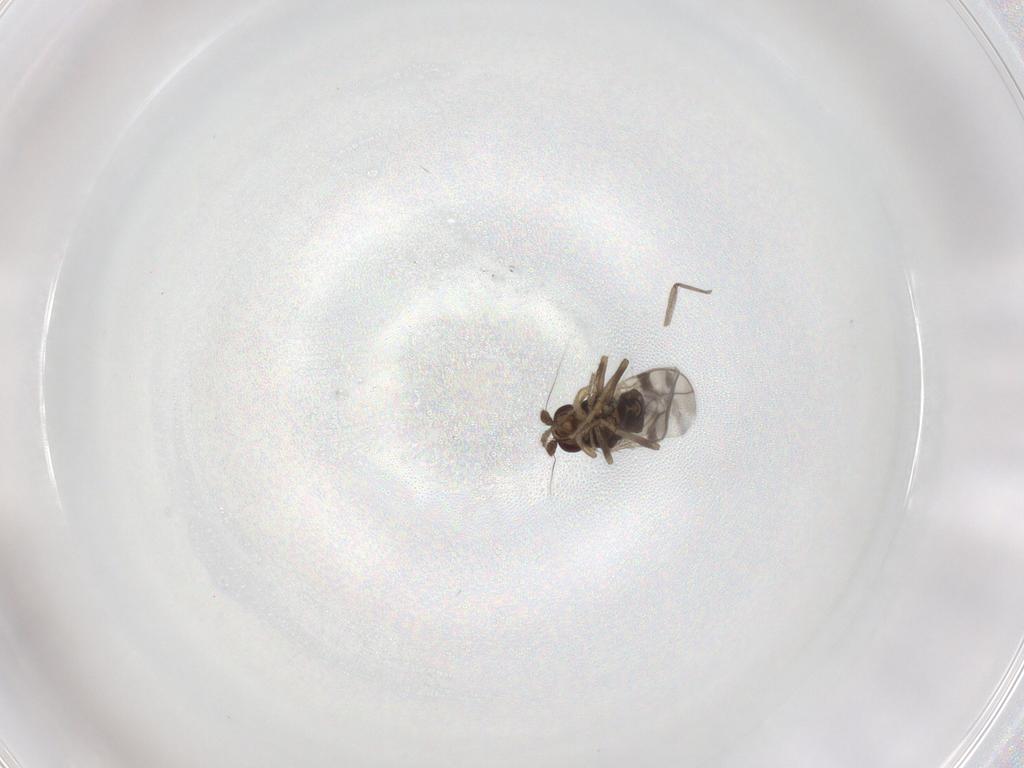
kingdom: Animalia
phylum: Arthropoda
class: Insecta
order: Diptera
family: Sphaeroceridae
